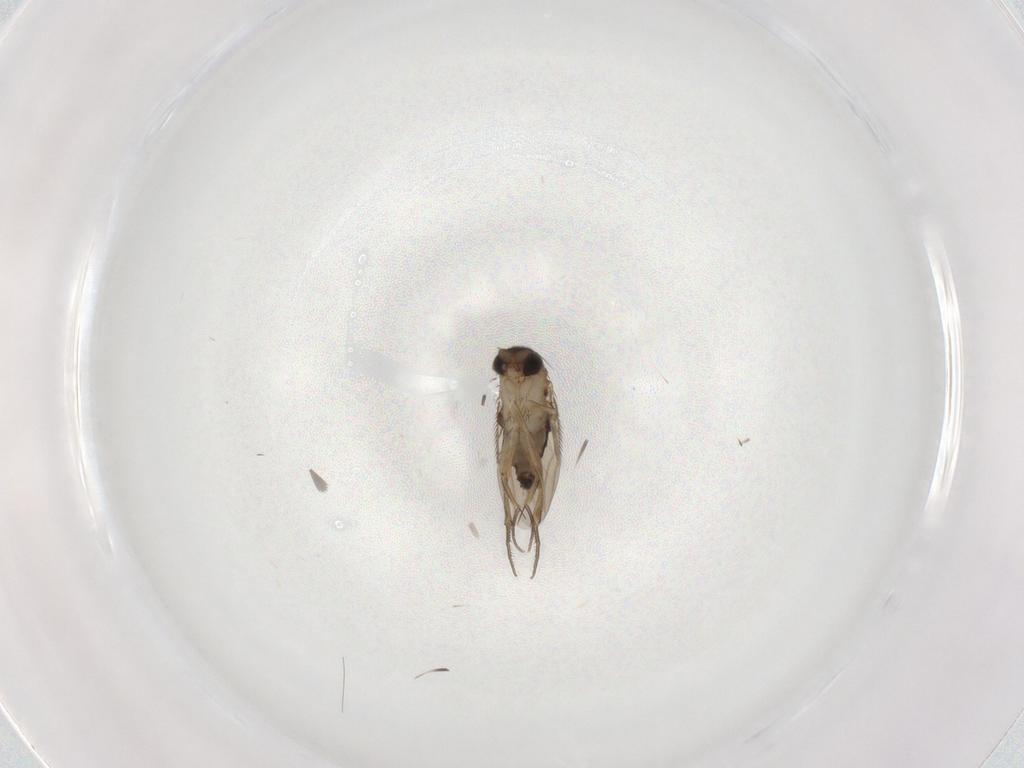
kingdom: Animalia
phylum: Arthropoda
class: Insecta
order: Diptera
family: Phoridae
